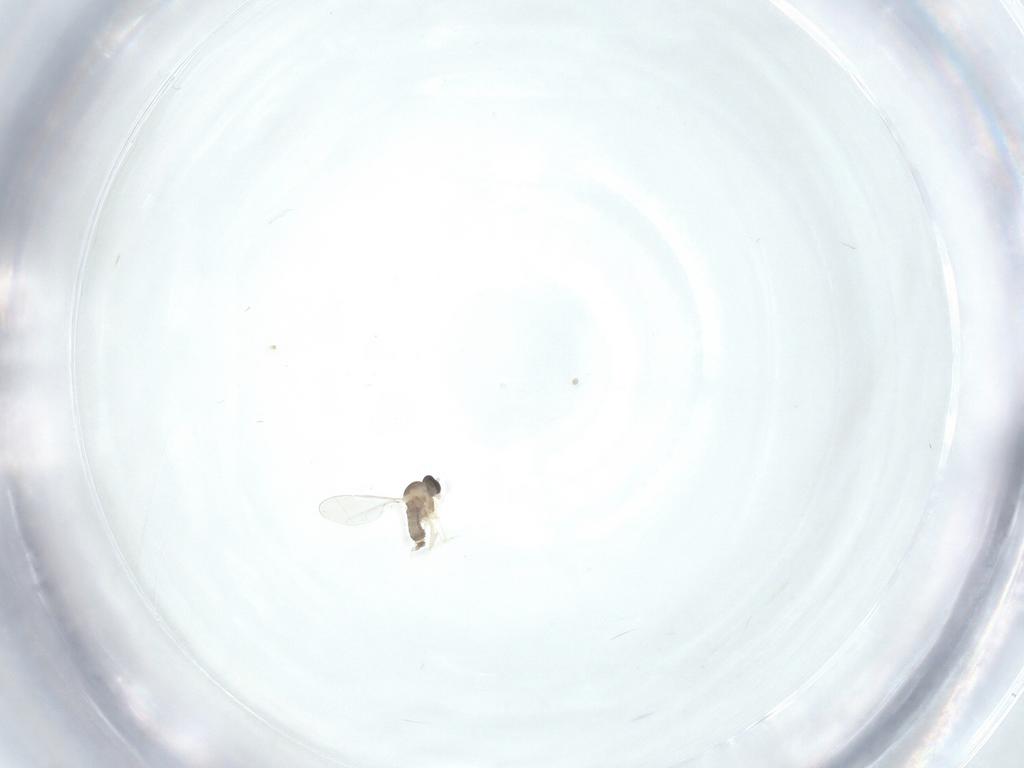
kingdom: Animalia
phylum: Arthropoda
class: Insecta
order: Diptera
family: Cecidomyiidae
